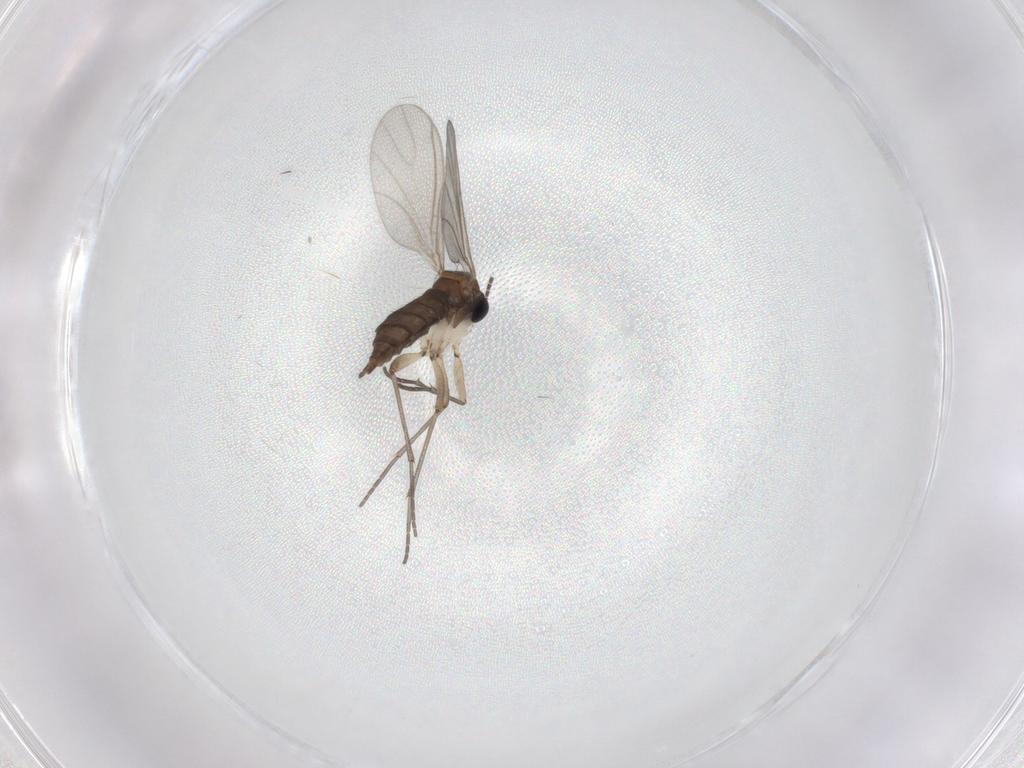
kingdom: Animalia
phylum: Arthropoda
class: Insecta
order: Diptera
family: Sciaridae
